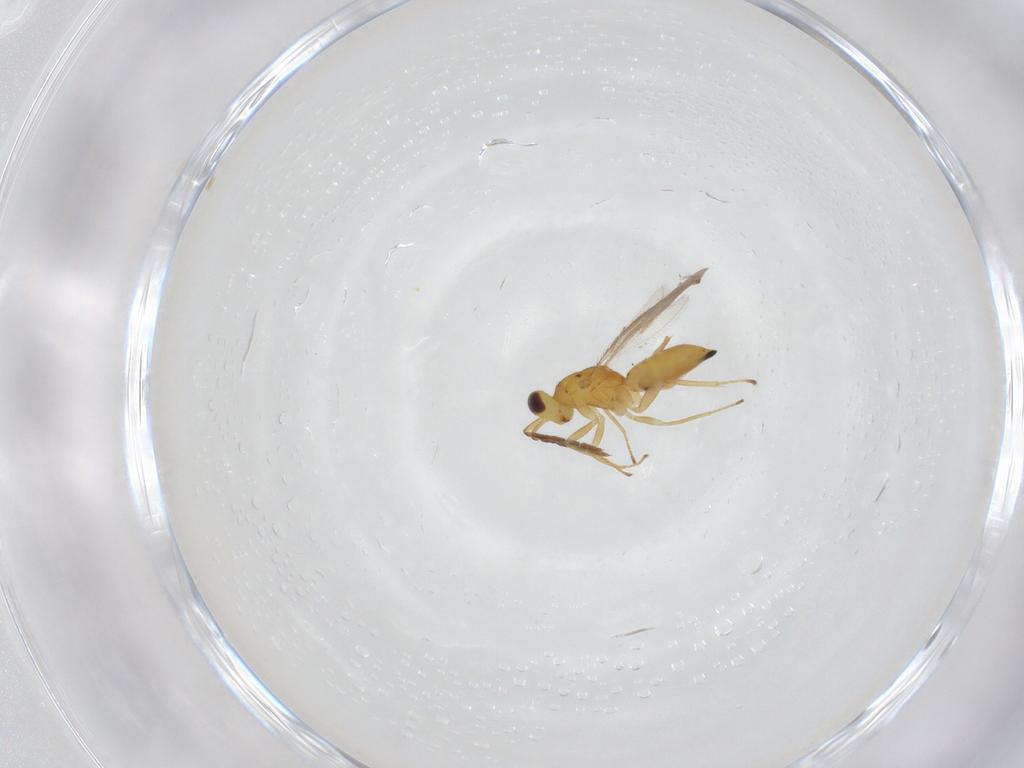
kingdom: Animalia
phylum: Arthropoda
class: Insecta
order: Hymenoptera
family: Eulophidae
